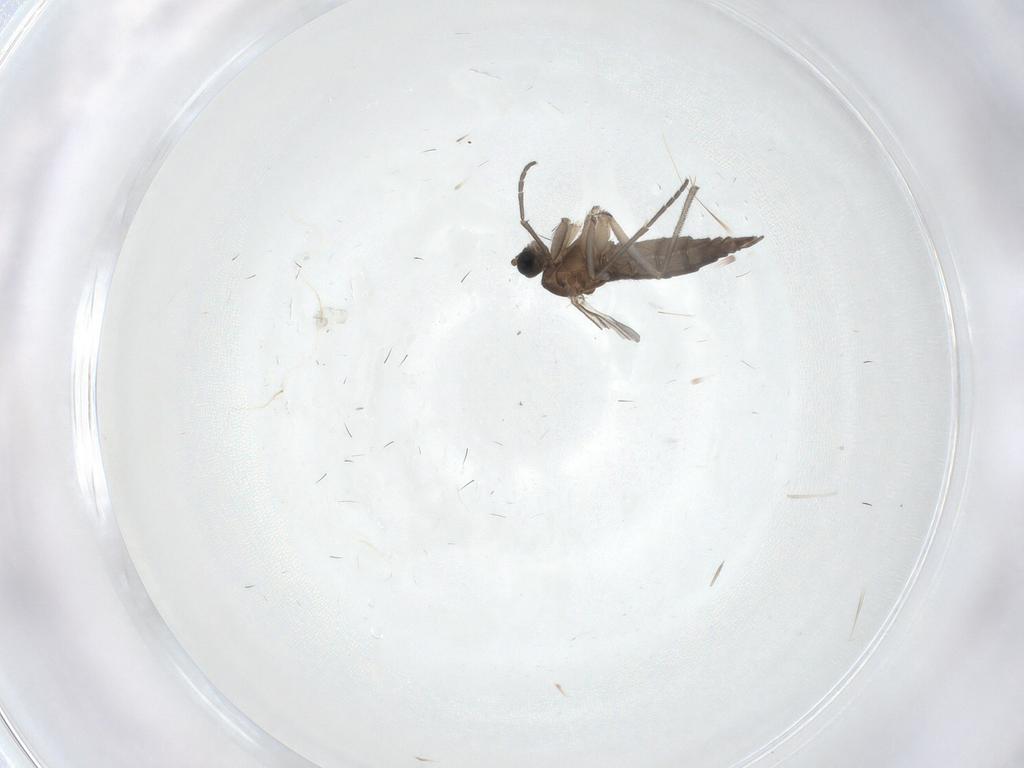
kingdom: Animalia
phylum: Arthropoda
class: Insecta
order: Diptera
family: Sciaridae
